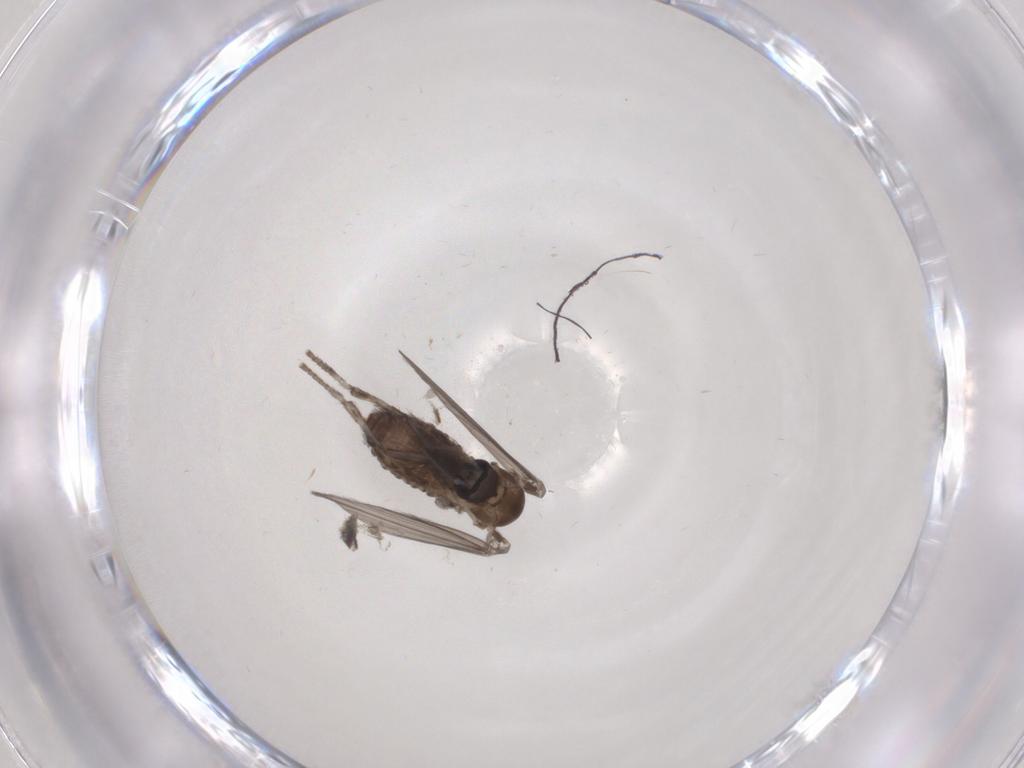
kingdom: Animalia
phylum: Arthropoda
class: Insecta
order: Diptera
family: Psychodidae
